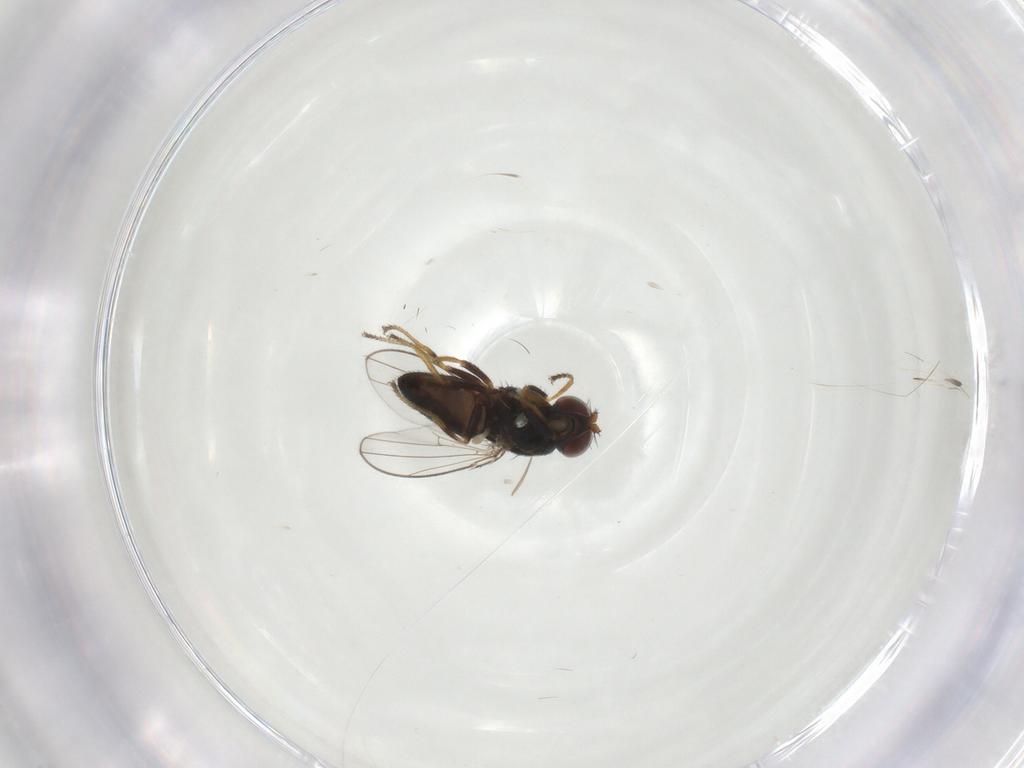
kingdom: Animalia
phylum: Arthropoda
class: Insecta
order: Diptera
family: Ephydridae
